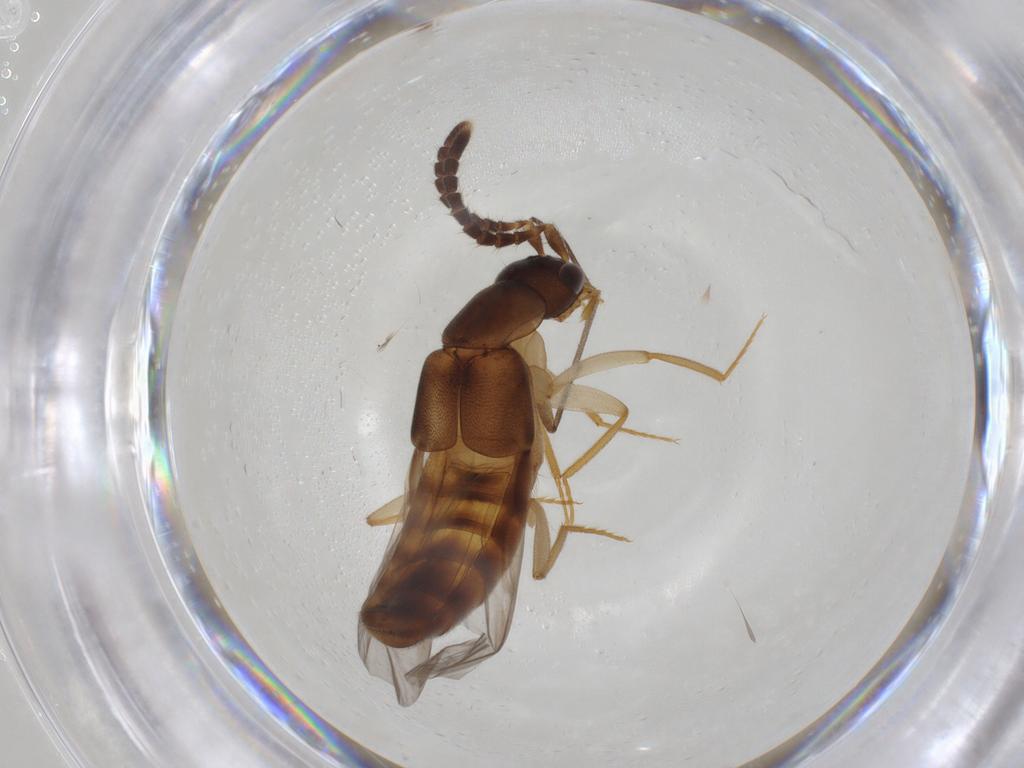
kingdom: Animalia
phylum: Arthropoda
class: Insecta
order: Coleoptera
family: Staphylinidae
